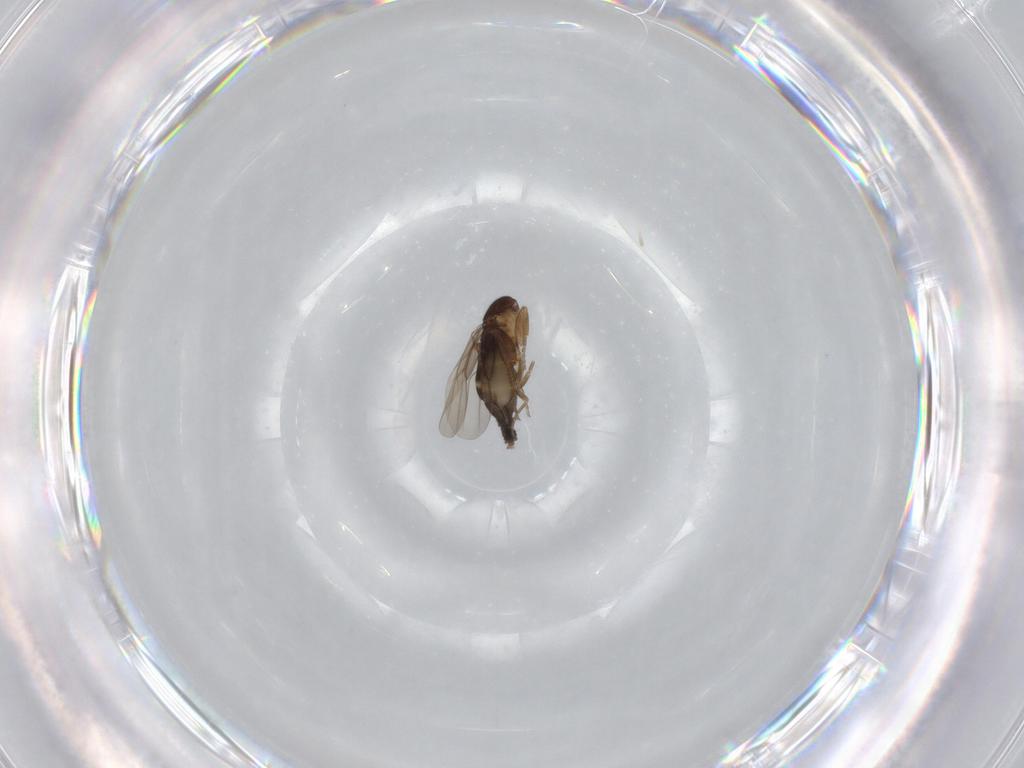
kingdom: Animalia
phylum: Arthropoda
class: Insecta
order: Diptera
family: Phoridae
